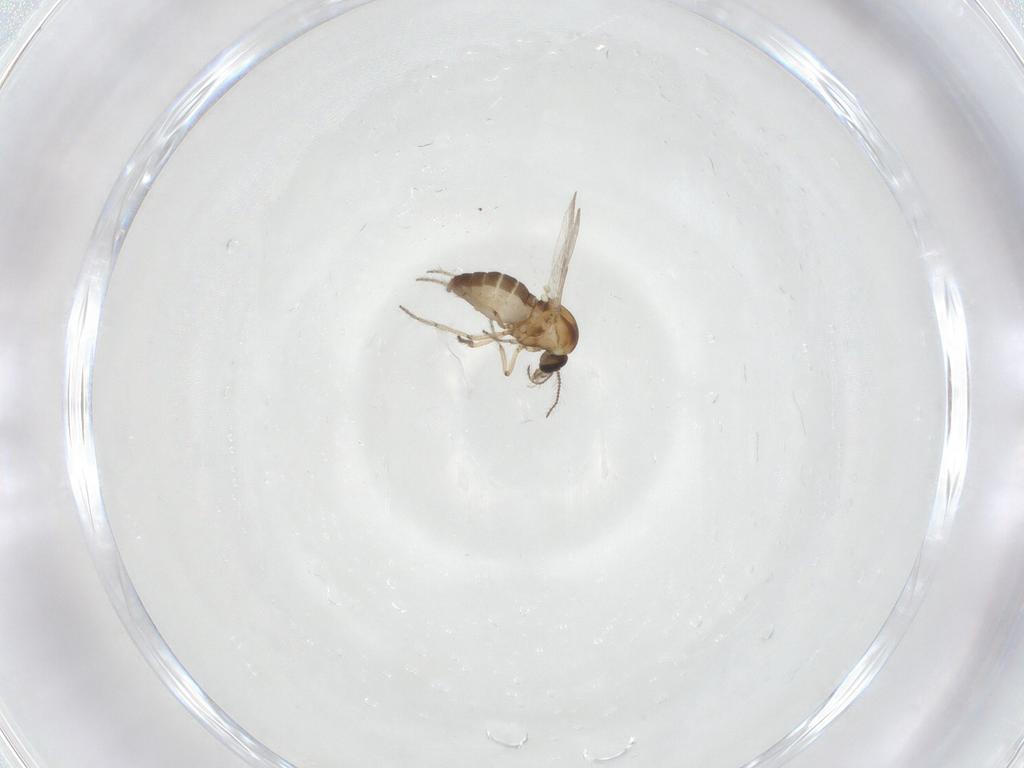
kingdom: Animalia
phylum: Arthropoda
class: Insecta
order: Diptera
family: Ceratopogonidae
